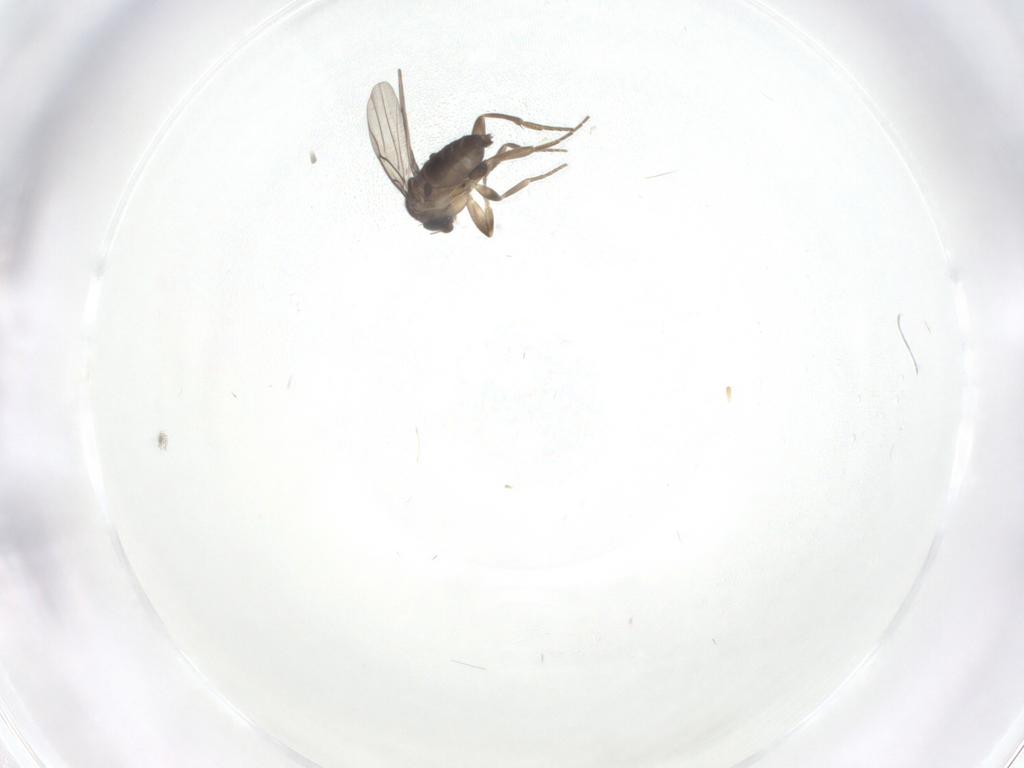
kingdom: Animalia
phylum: Arthropoda
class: Insecta
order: Diptera
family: Phoridae
